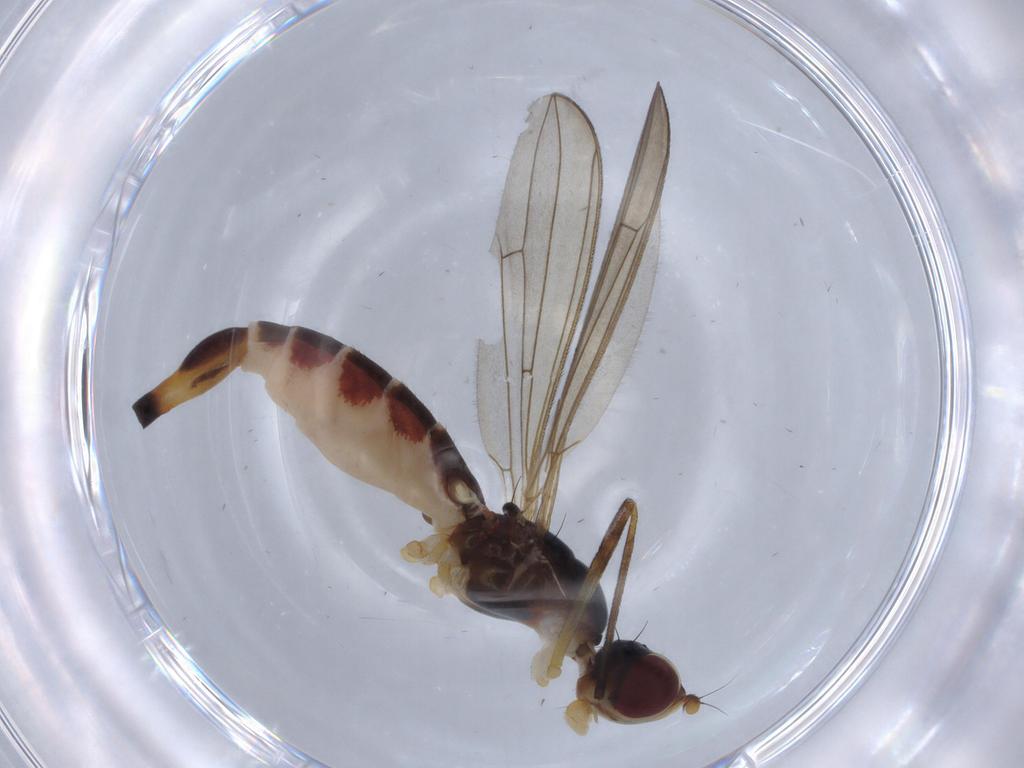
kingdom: Animalia
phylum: Arthropoda
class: Insecta
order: Diptera
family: Micropezidae
